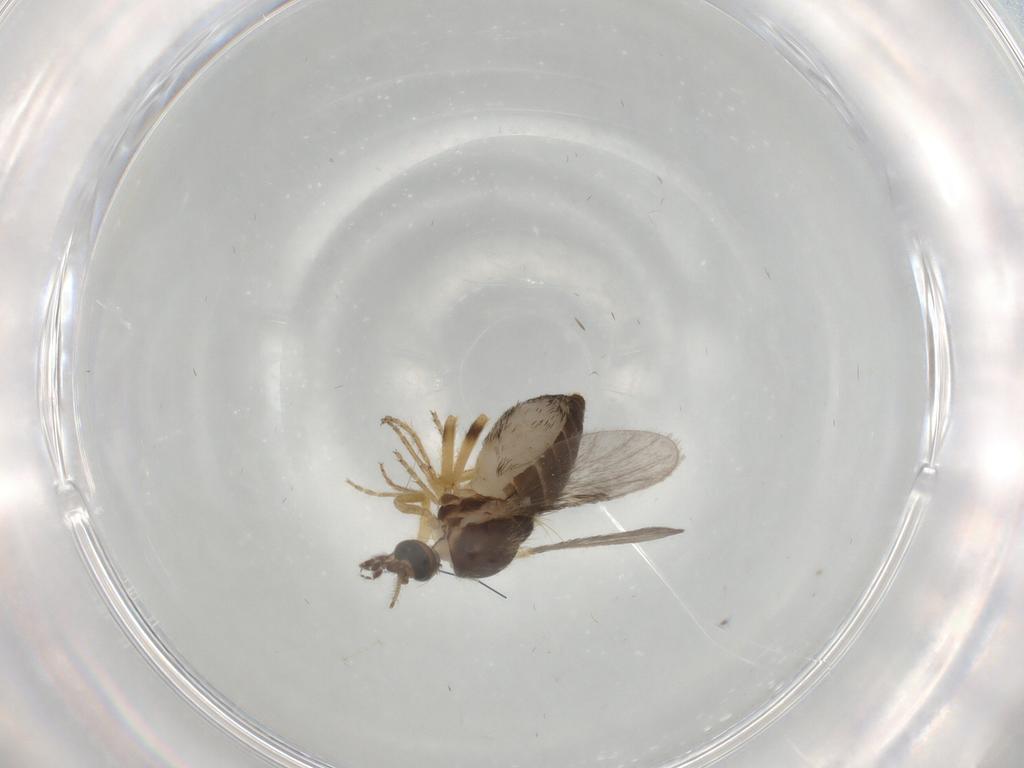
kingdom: Animalia
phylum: Arthropoda
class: Insecta
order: Diptera
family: Ceratopogonidae
